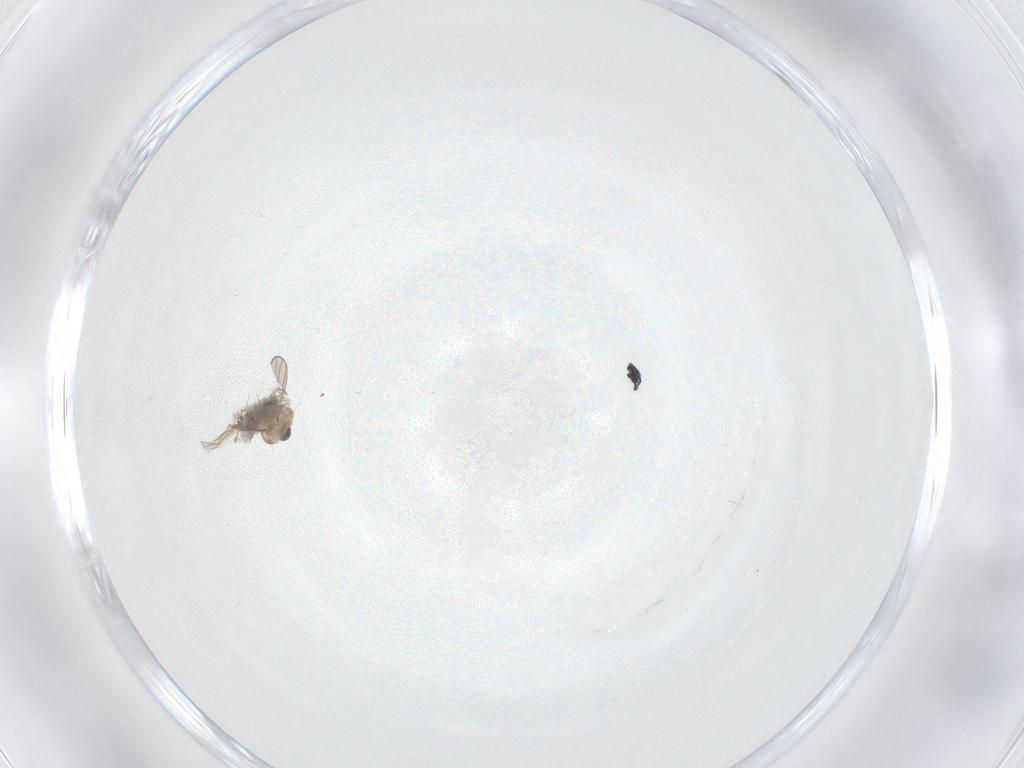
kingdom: Animalia
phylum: Arthropoda
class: Insecta
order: Diptera
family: Chironomidae
